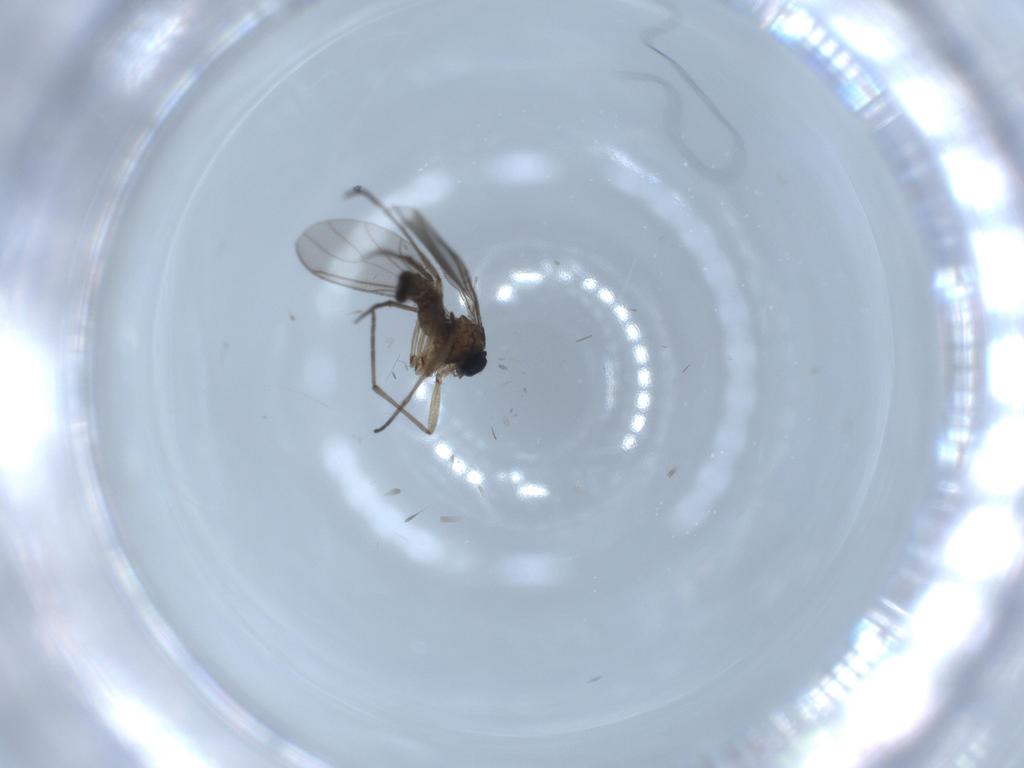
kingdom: Animalia
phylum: Arthropoda
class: Insecta
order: Diptera
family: Sciaridae
